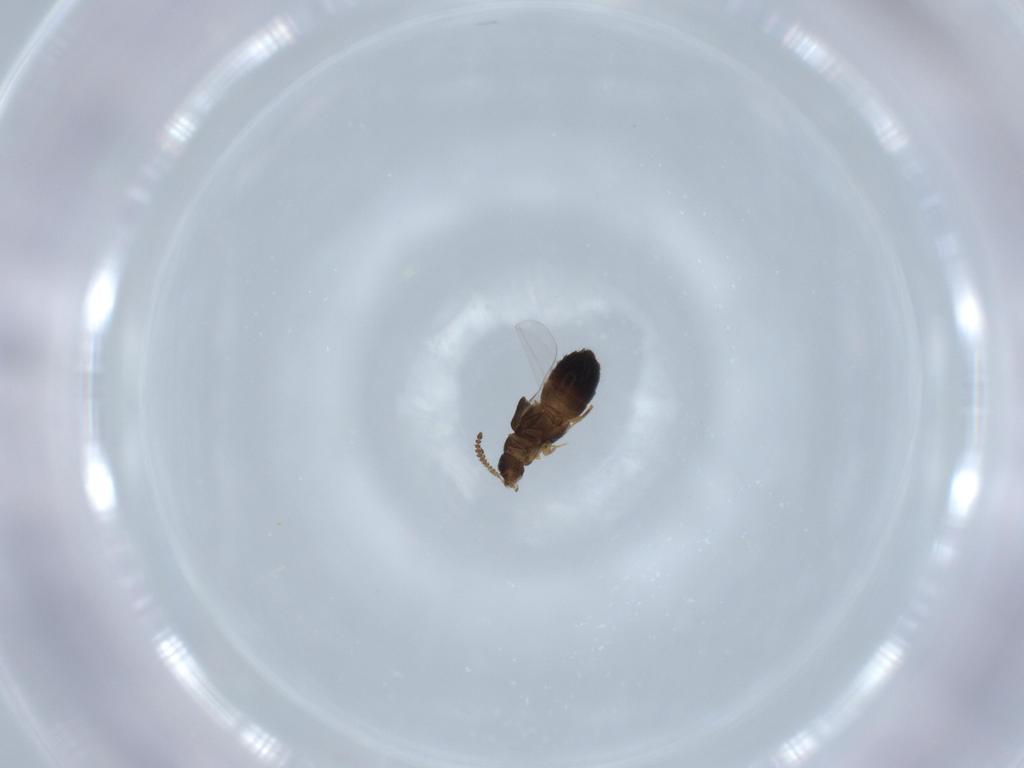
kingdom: Animalia
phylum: Arthropoda
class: Insecta
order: Coleoptera
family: Staphylinidae
